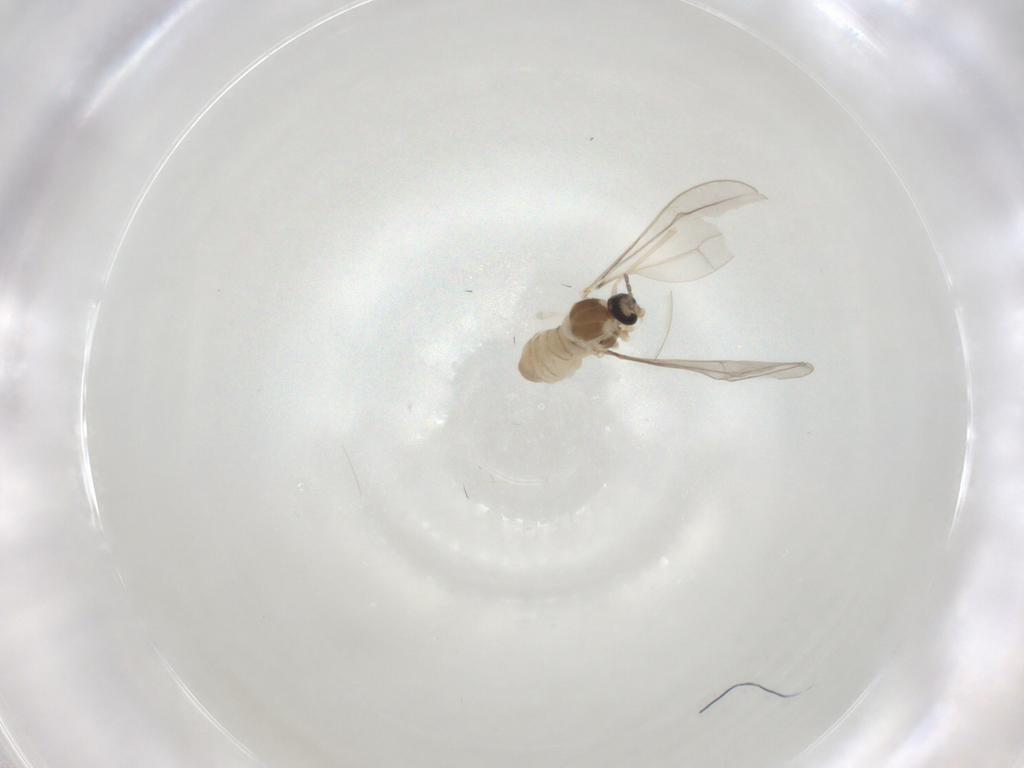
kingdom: Animalia
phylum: Arthropoda
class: Insecta
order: Diptera
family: Cecidomyiidae
